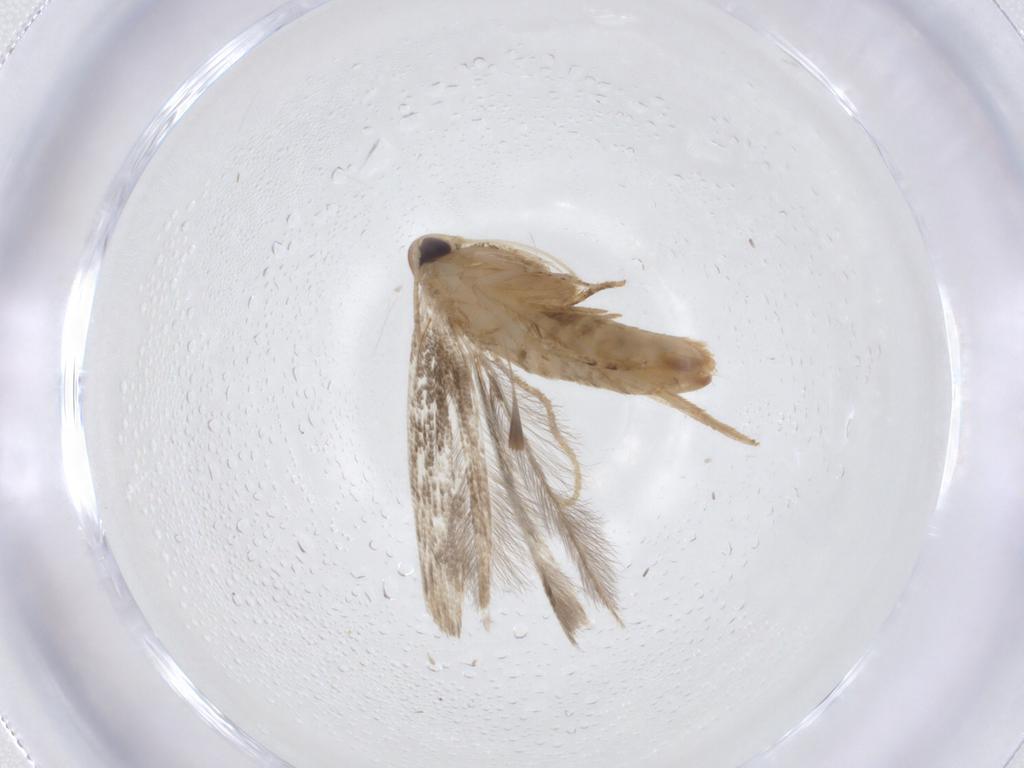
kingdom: Animalia
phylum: Arthropoda
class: Insecta
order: Lepidoptera
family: Cosmopterigidae
